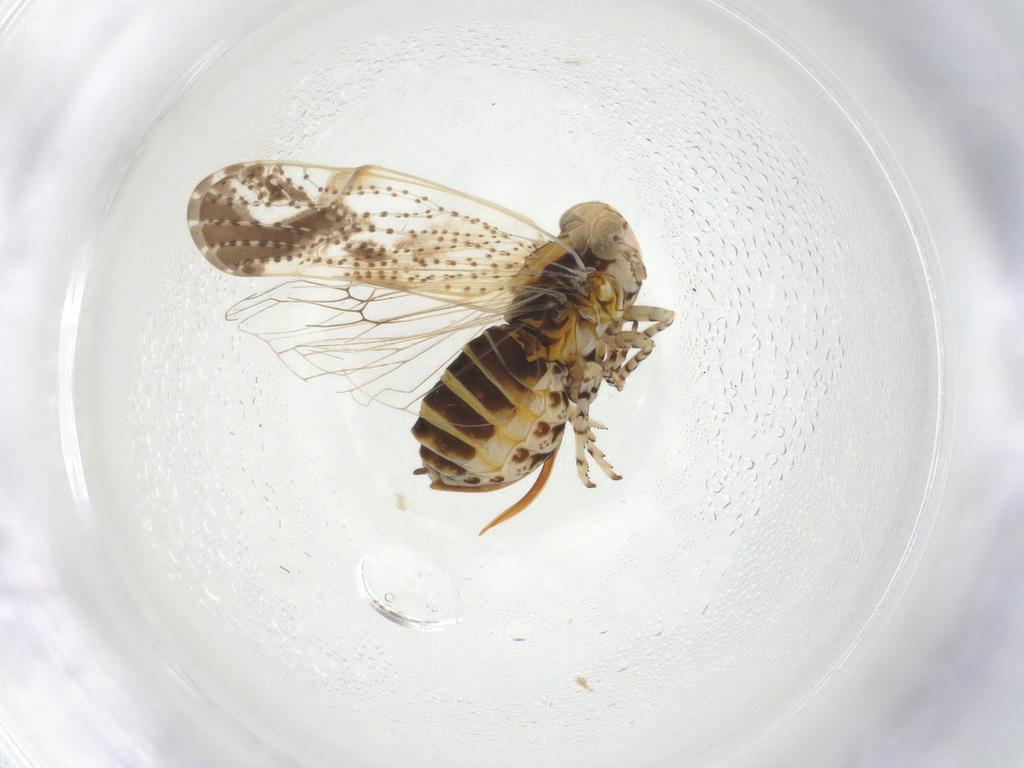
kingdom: Animalia
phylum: Arthropoda
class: Insecta
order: Hemiptera
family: Delphacidae
